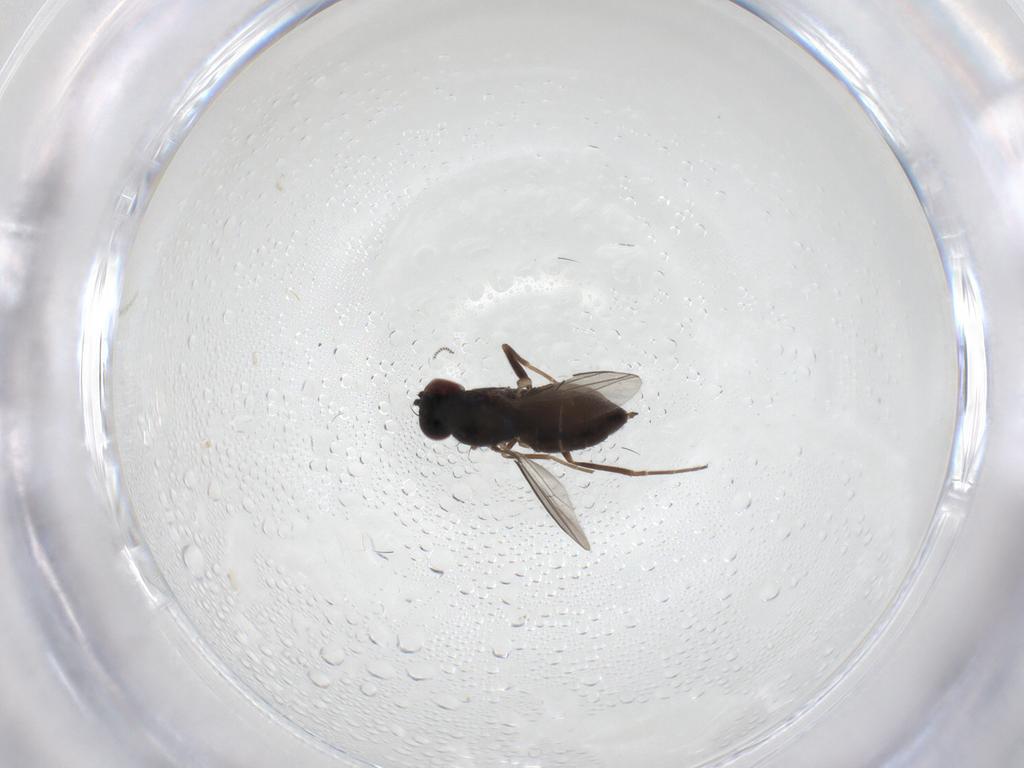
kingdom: Animalia
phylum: Arthropoda
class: Insecta
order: Diptera
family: Dolichopodidae
